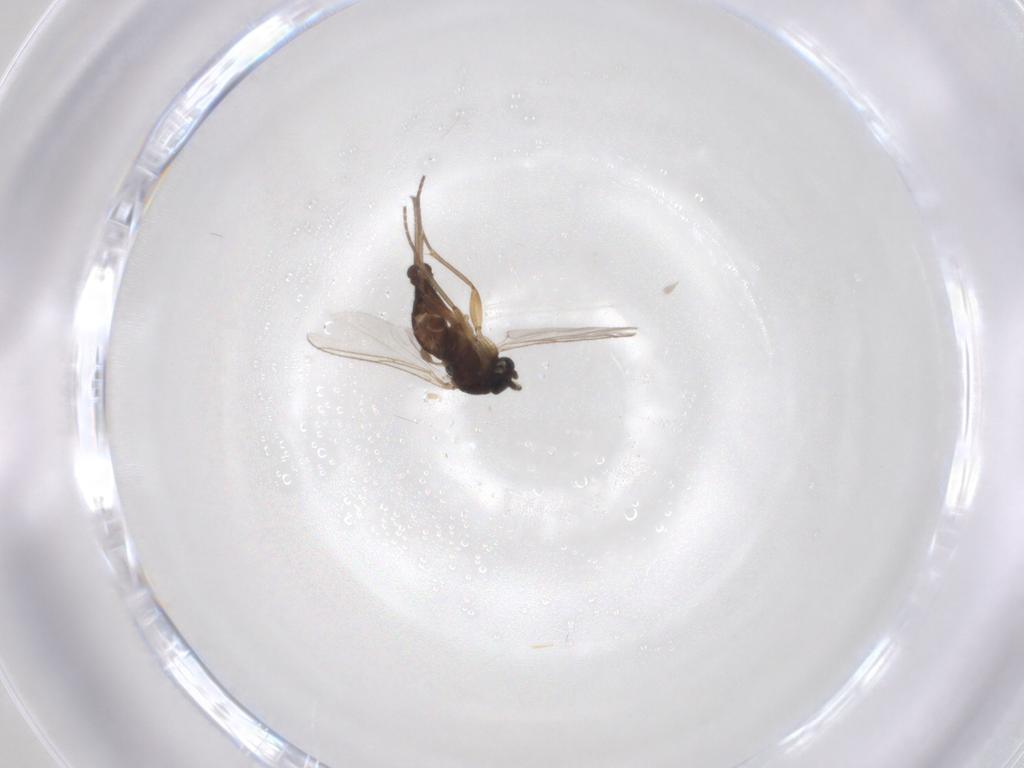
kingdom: Animalia
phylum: Arthropoda
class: Insecta
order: Diptera
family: Sciaridae
